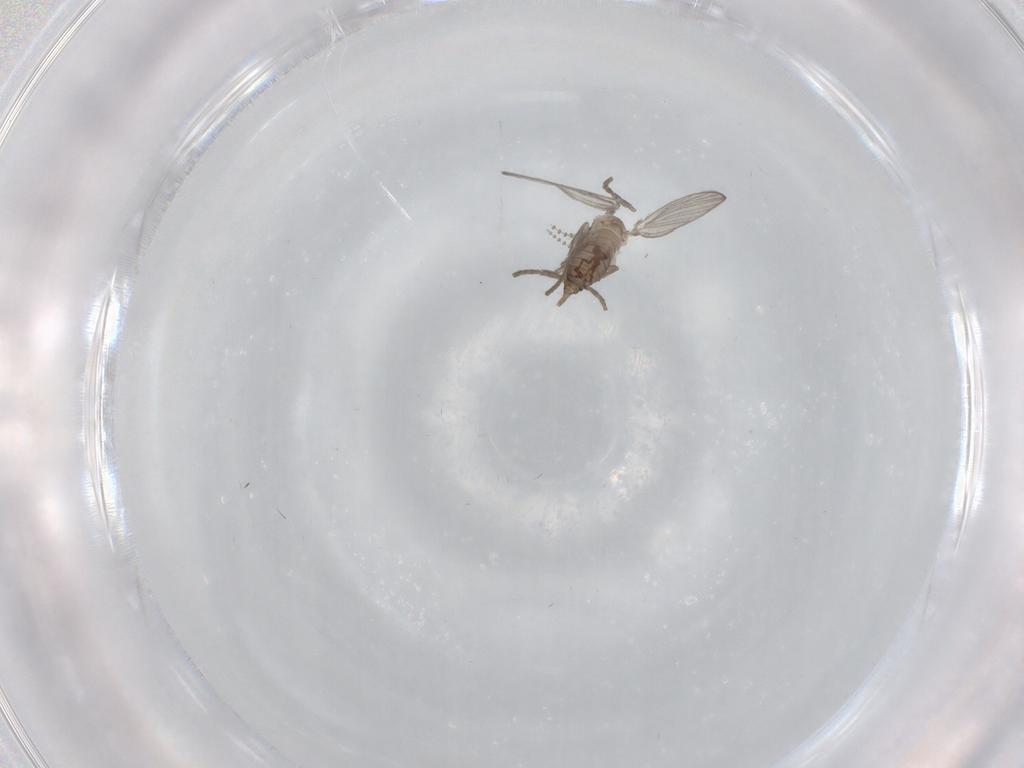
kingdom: Animalia
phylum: Arthropoda
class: Insecta
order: Diptera
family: Psychodidae
